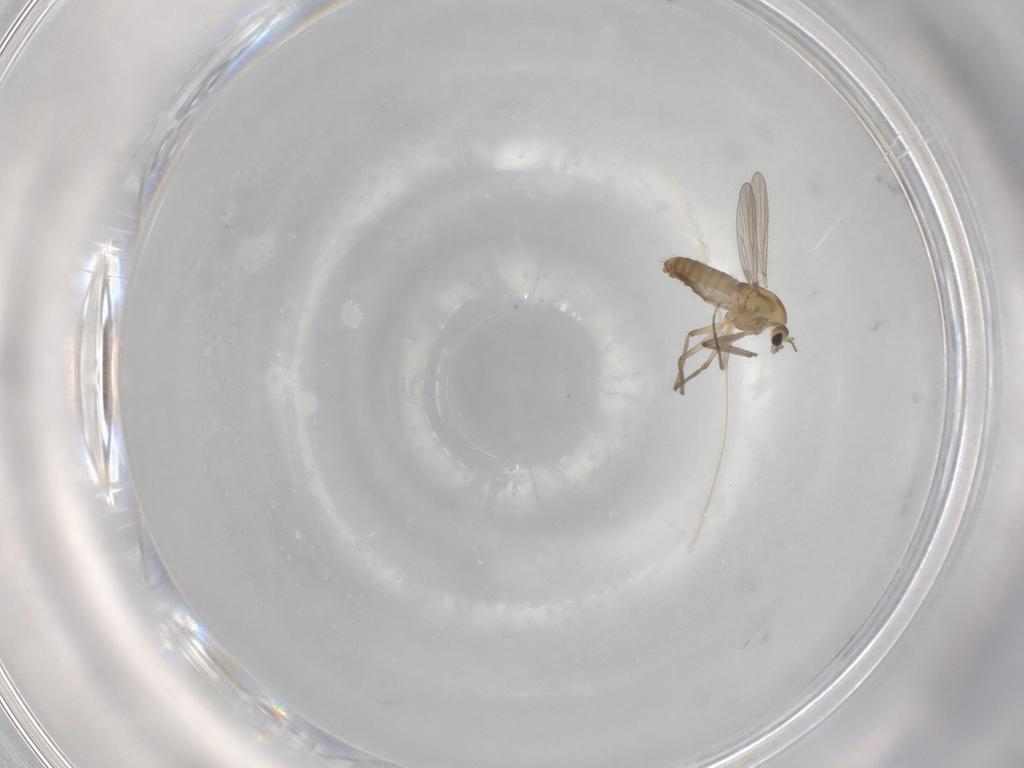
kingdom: Animalia
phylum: Arthropoda
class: Insecta
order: Diptera
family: Chironomidae
